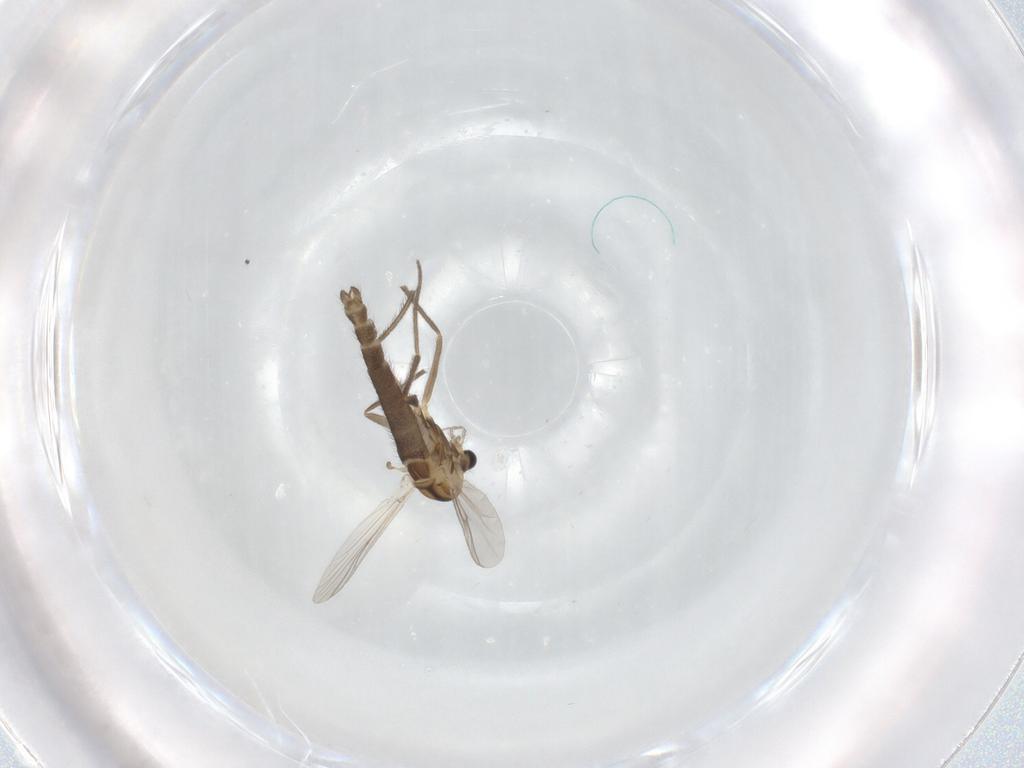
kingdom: Animalia
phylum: Arthropoda
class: Insecta
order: Diptera
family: Chironomidae
